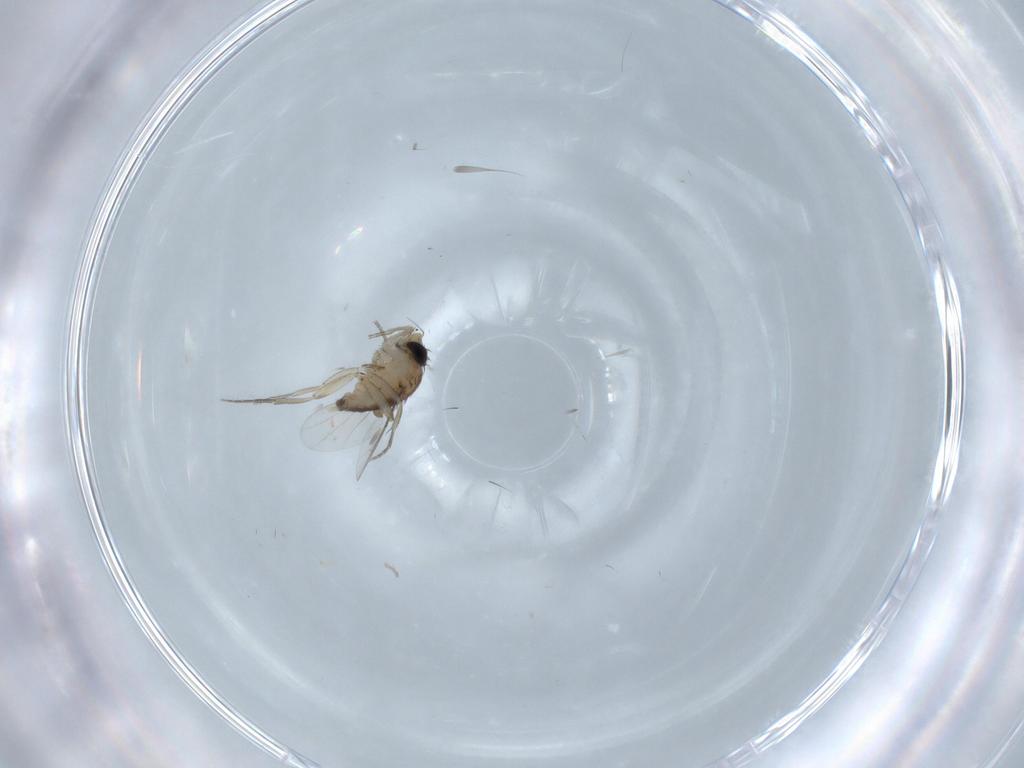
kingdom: Animalia
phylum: Arthropoda
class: Insecta
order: Diptera
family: Phoridae
